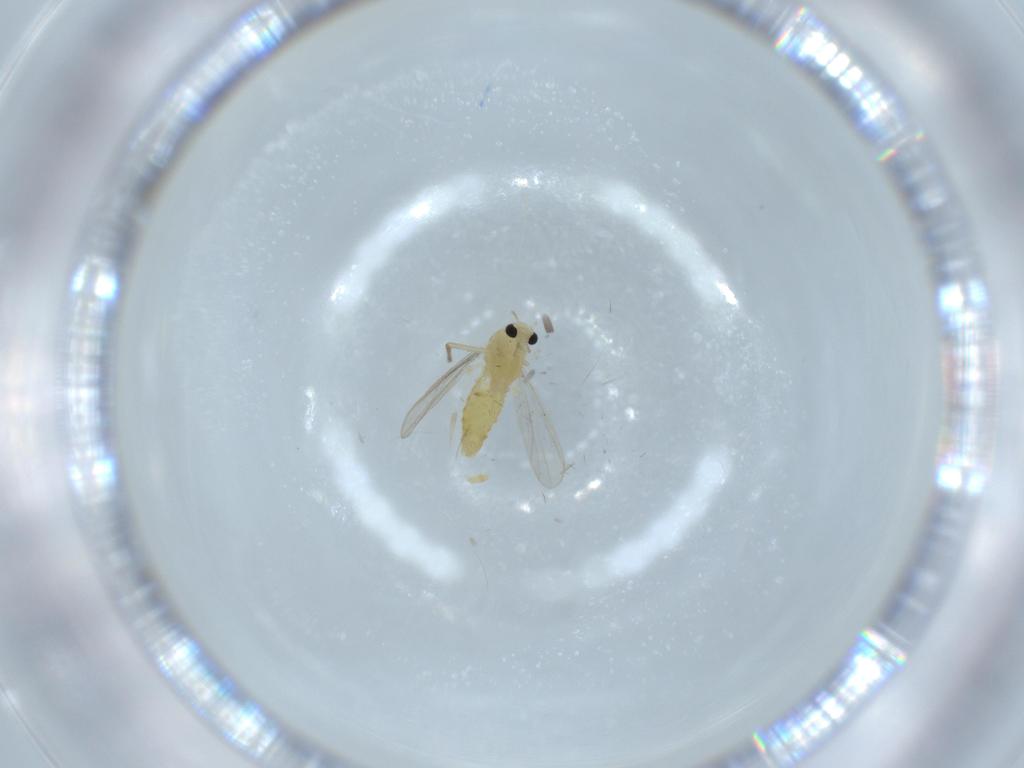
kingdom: Animalia
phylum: Arthropoda
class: Insecta
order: Diptera
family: Chironomidae
